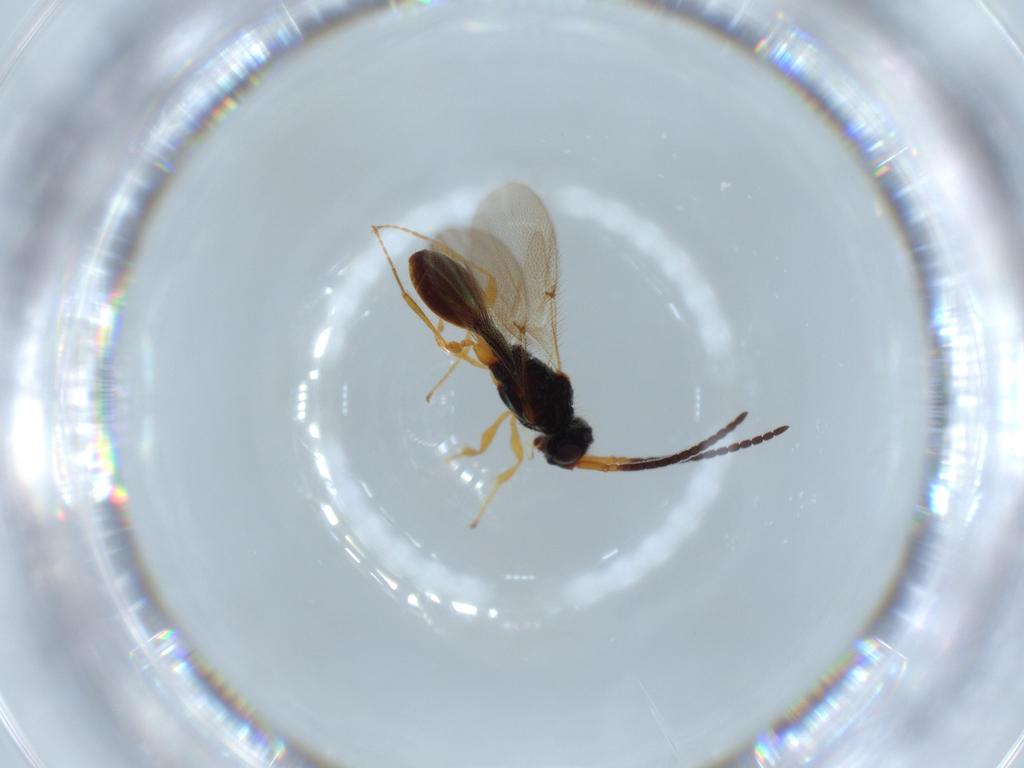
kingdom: Animalia
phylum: Arthropoda
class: Insecta
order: Hymenoptera
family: Diapriidae
